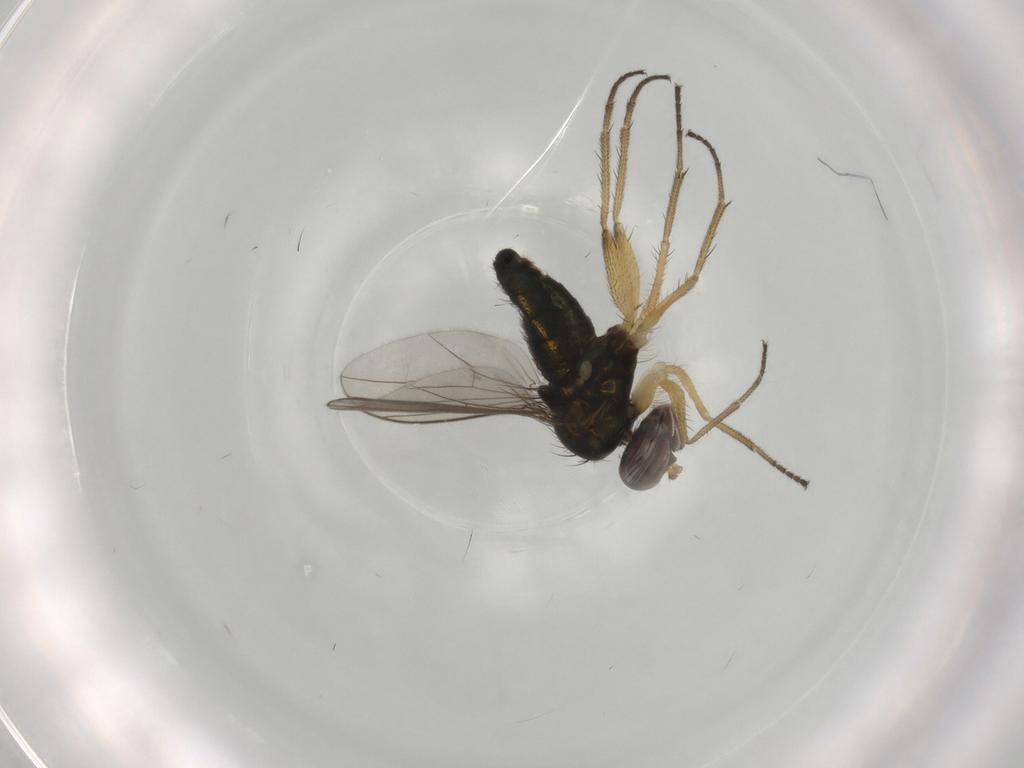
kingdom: Animalia
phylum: Arthropoda
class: Insecta
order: Diptera
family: Dolichopodidae
